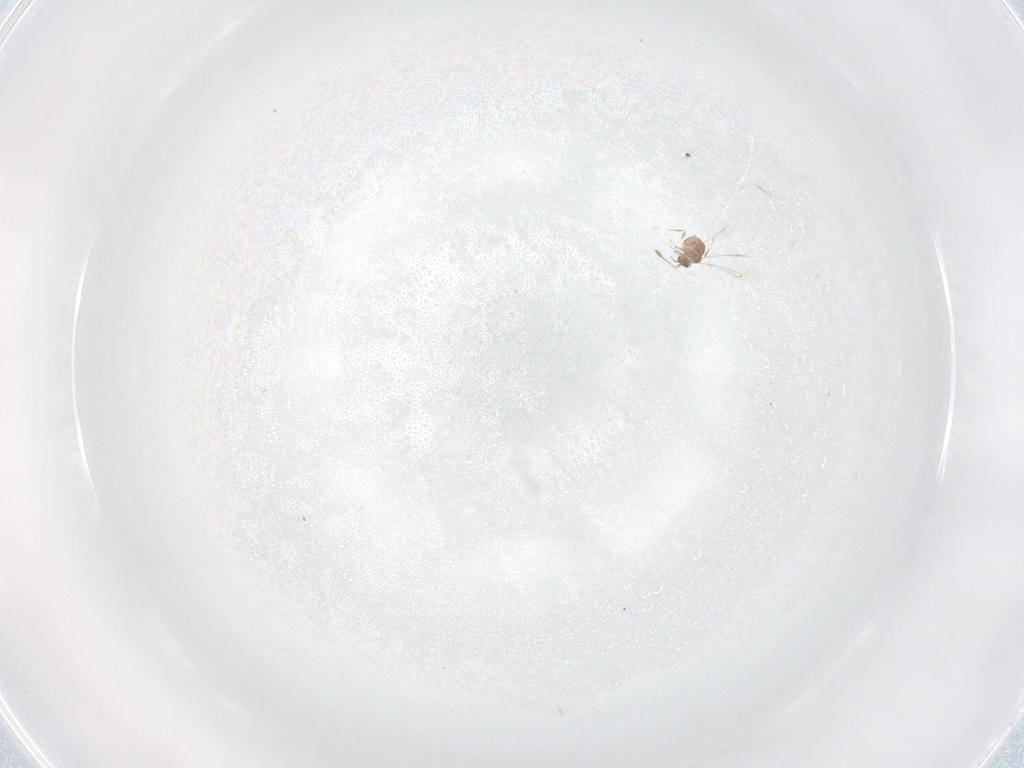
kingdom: Animalia
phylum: Arthropoda
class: Insecta
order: Hymenoptera
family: Mymaridae
